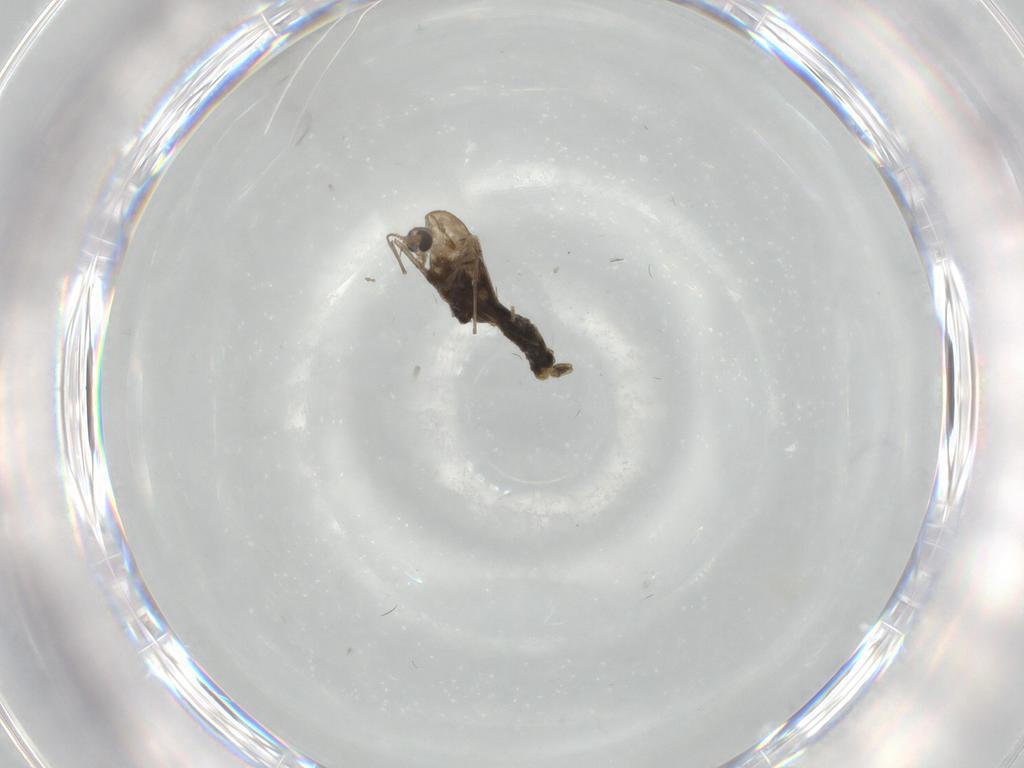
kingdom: Animalia
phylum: Arthropoda
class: Insecta
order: Diptera
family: Cecidomyiidae
